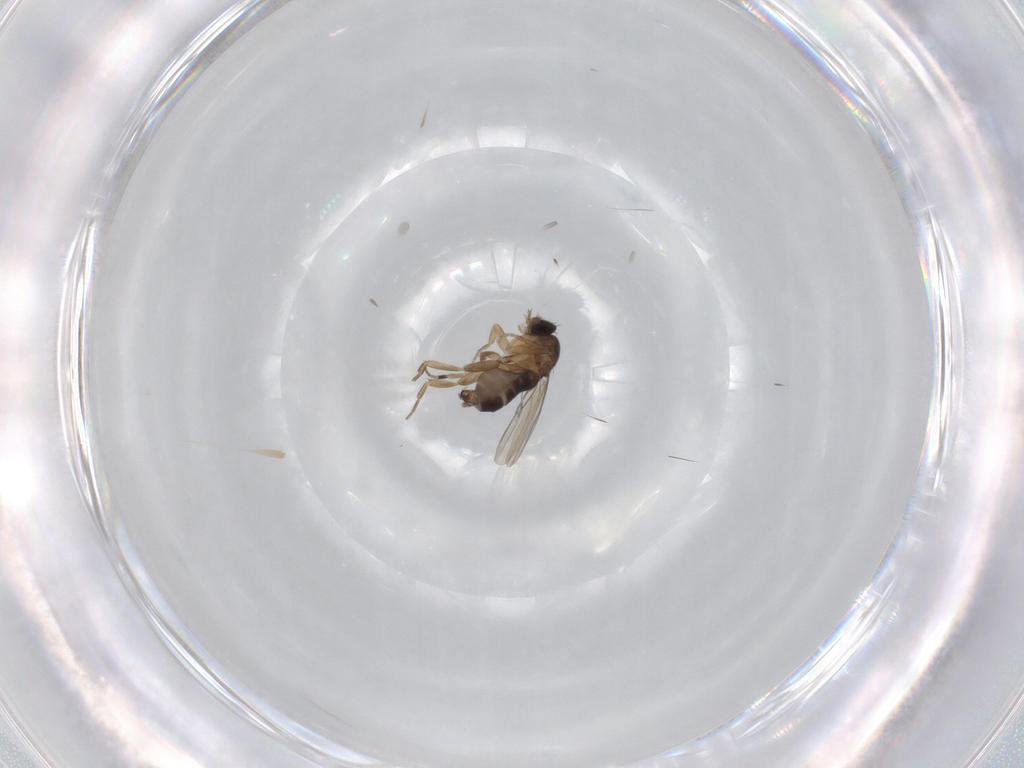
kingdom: Animalia
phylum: Arthropoda
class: Insecta
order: Diptera
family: Phoridae
